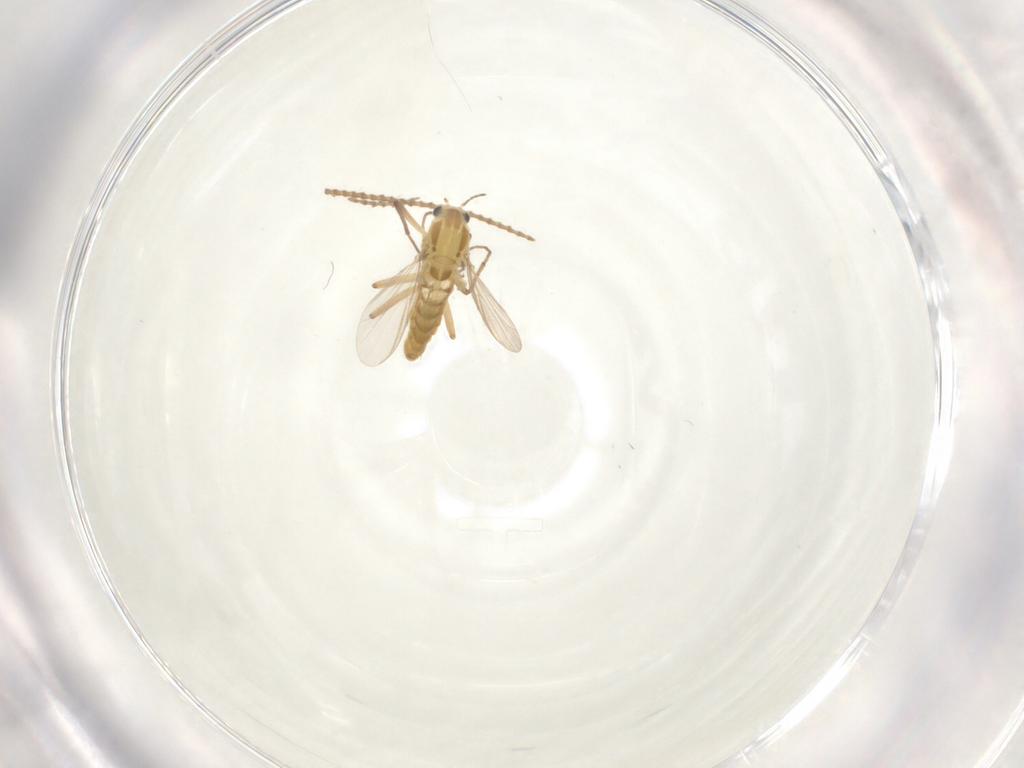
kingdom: Animalia
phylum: Arthropoda
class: Insecta
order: Diptera
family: Chironomidae
